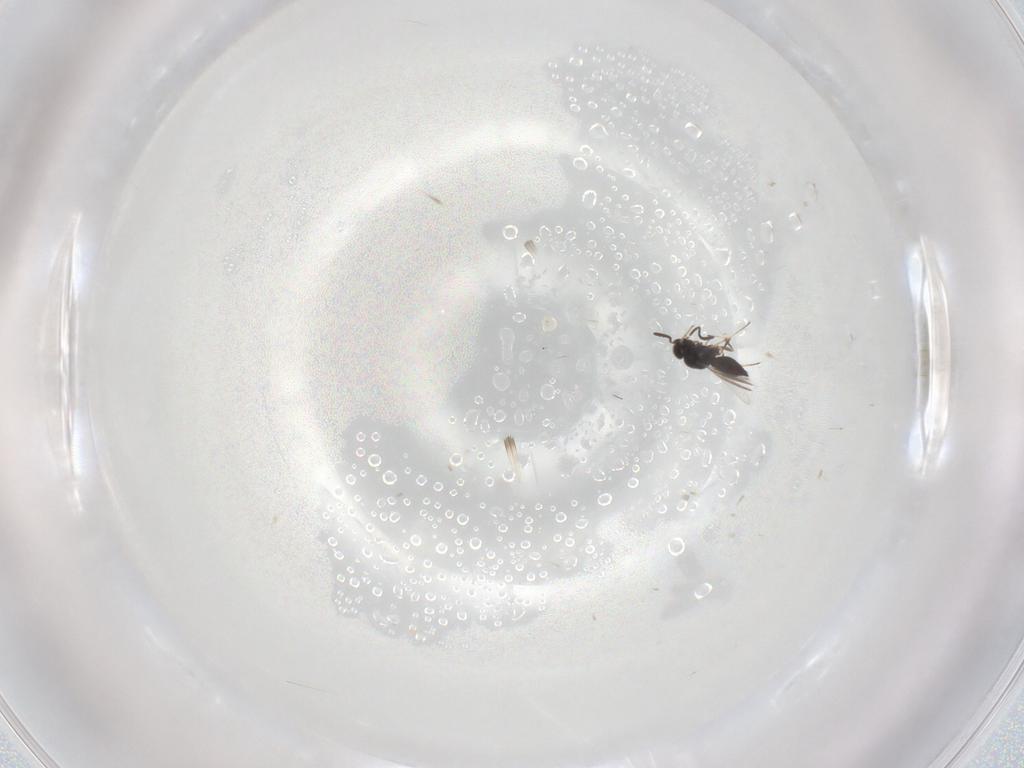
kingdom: Animalia
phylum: Arthropoda
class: Insecta
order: Hymenoptera
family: Scelionidae
